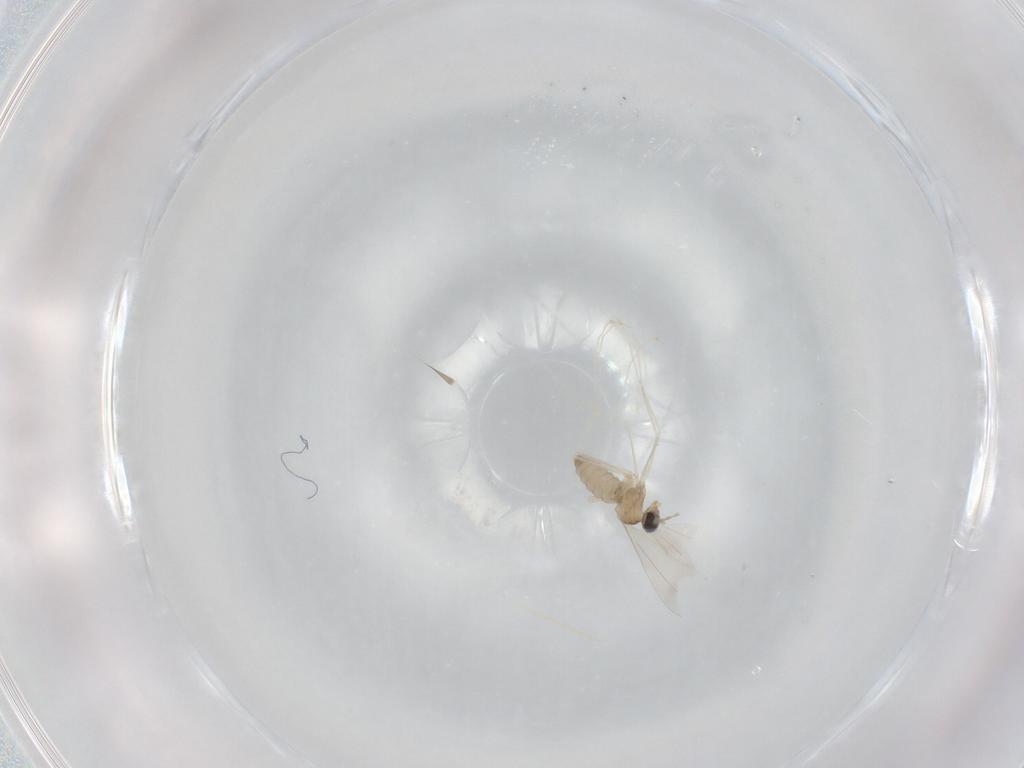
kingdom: Animalia
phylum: Arthropoda
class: Insecta
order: Diptera
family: Cecidomyiidae
